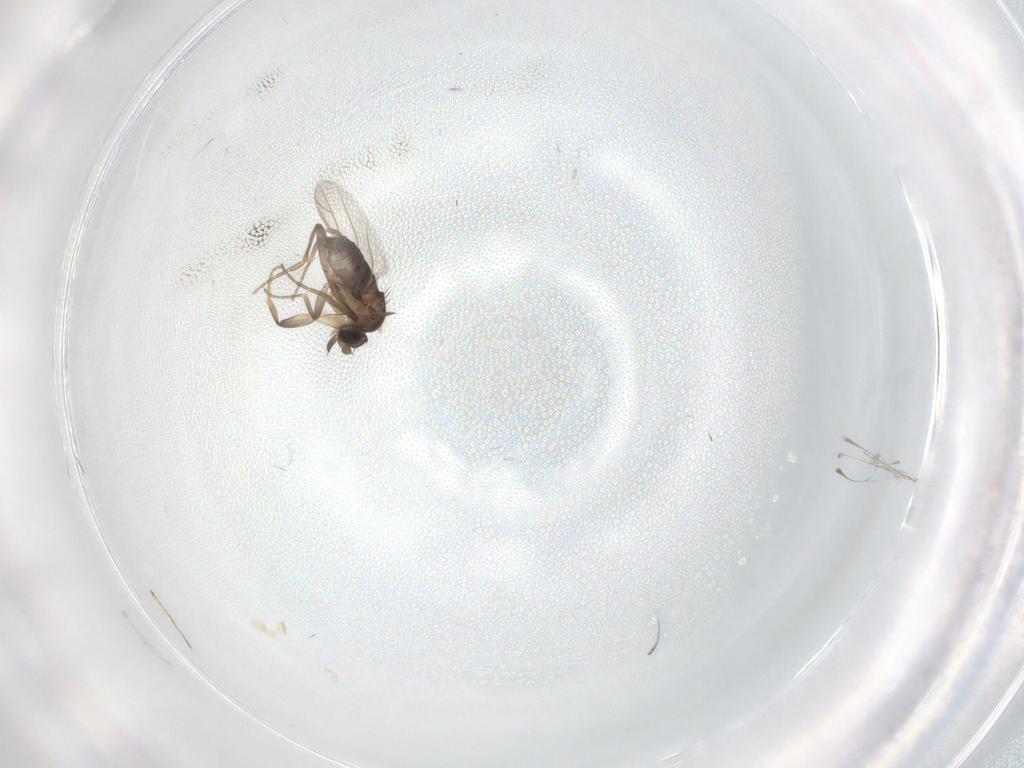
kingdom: Animalia
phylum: Arthropoda
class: Insecta
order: Diptera
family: Phoridae
